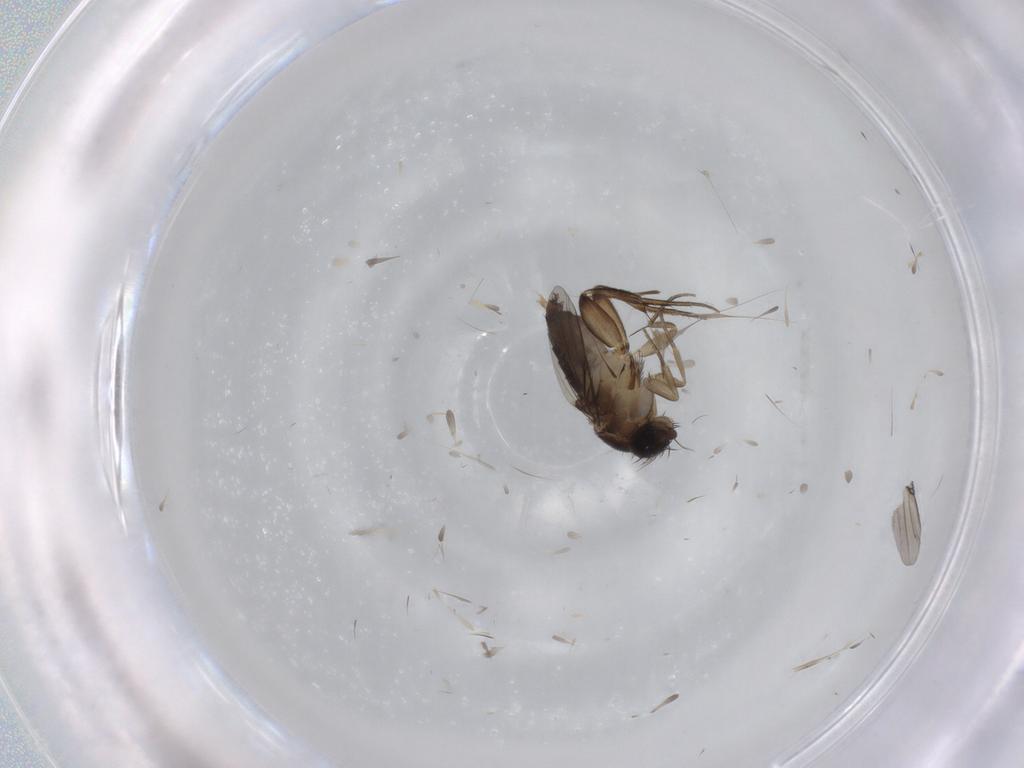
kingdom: Animalia
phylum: Arthropoda
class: Insecta
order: Diptera
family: Phoridae
